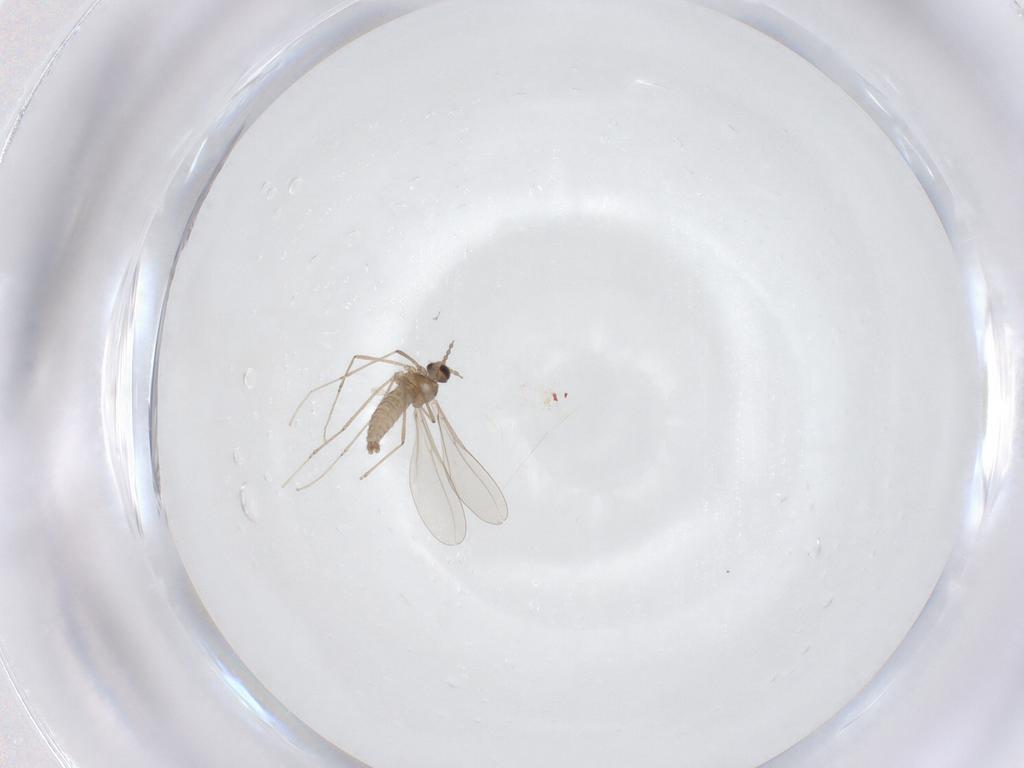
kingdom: Animalia
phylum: Arthropoda
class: Insecta
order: Diptera
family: Cecidomyiidae
